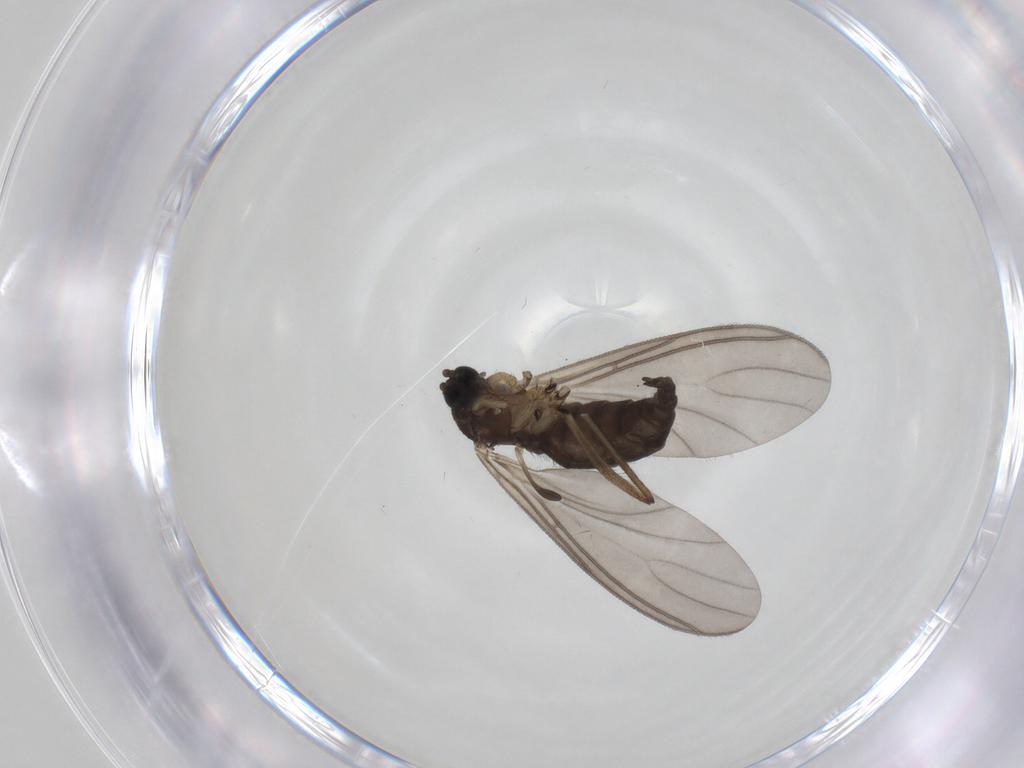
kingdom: Animalia
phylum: Arthropoda
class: Insecta
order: Diptera
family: Sciaridae
